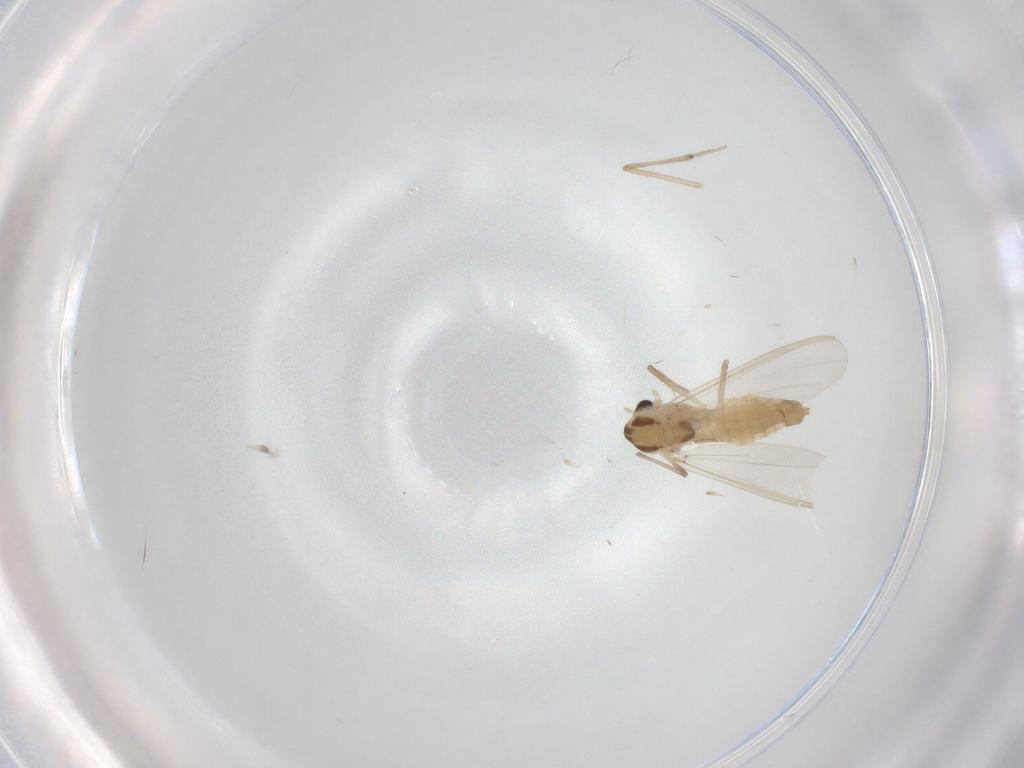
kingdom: Animalia
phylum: Arthropoda
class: Insecta
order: Diptera
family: Chironomidae
